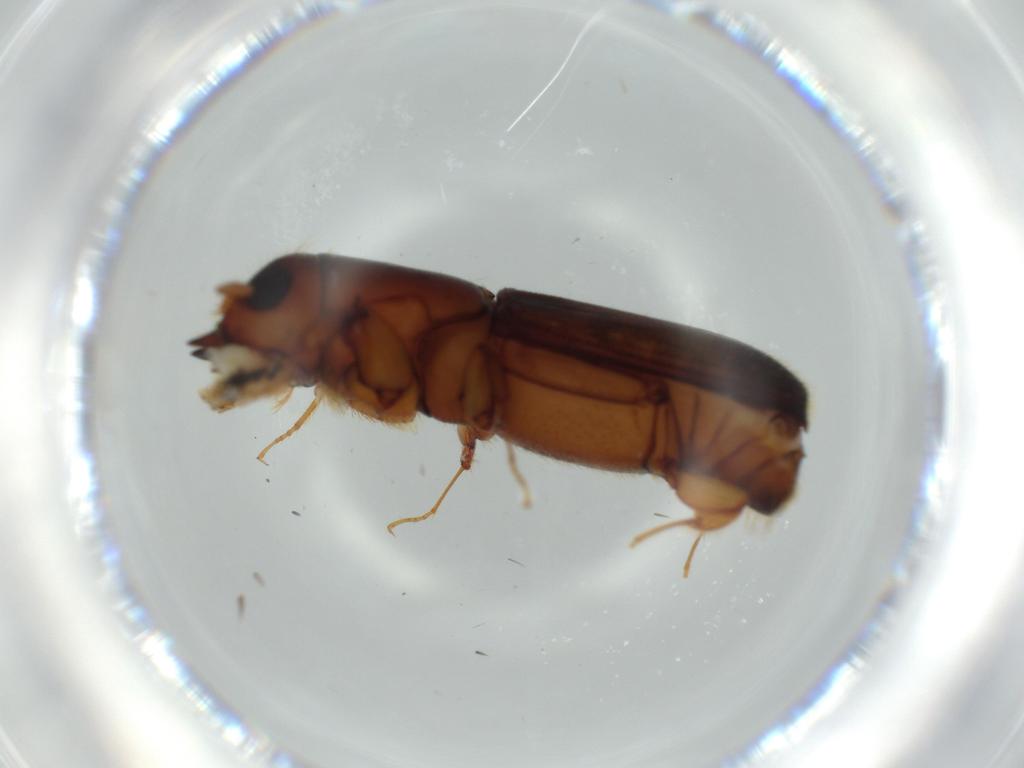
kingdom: Animalia
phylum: Arthropoda
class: Insecta
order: Coleoptera
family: Curculionidae
